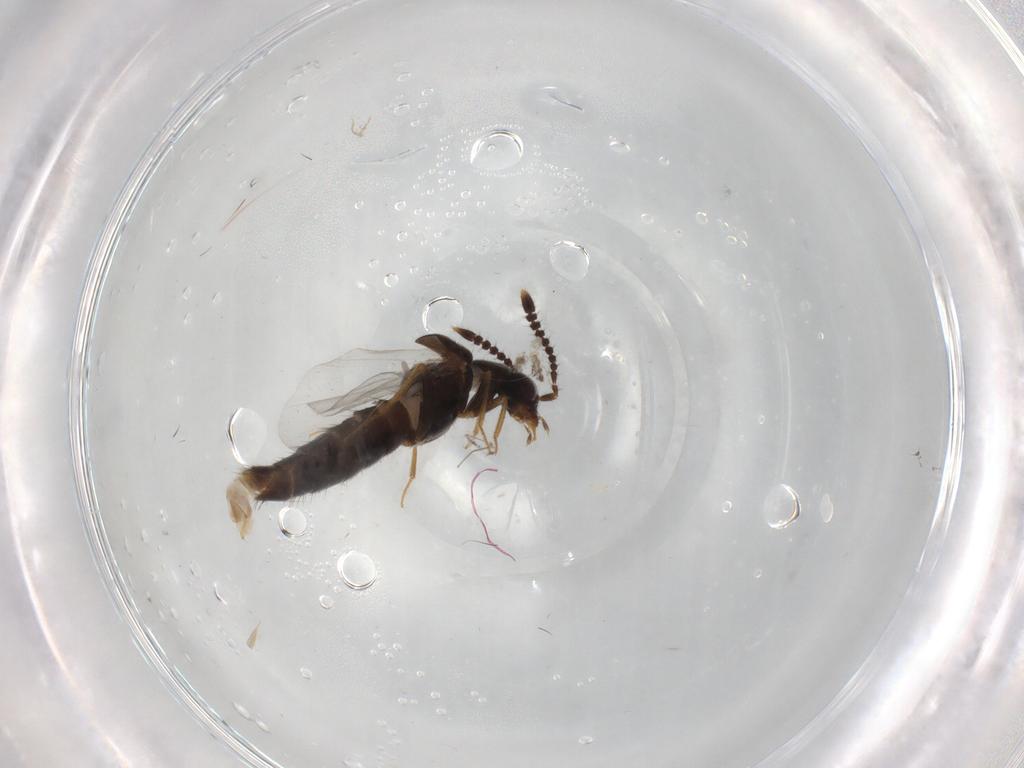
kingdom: Animalia
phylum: Arthropoda
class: Insecta
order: Coleoptera
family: Staphylinidae
